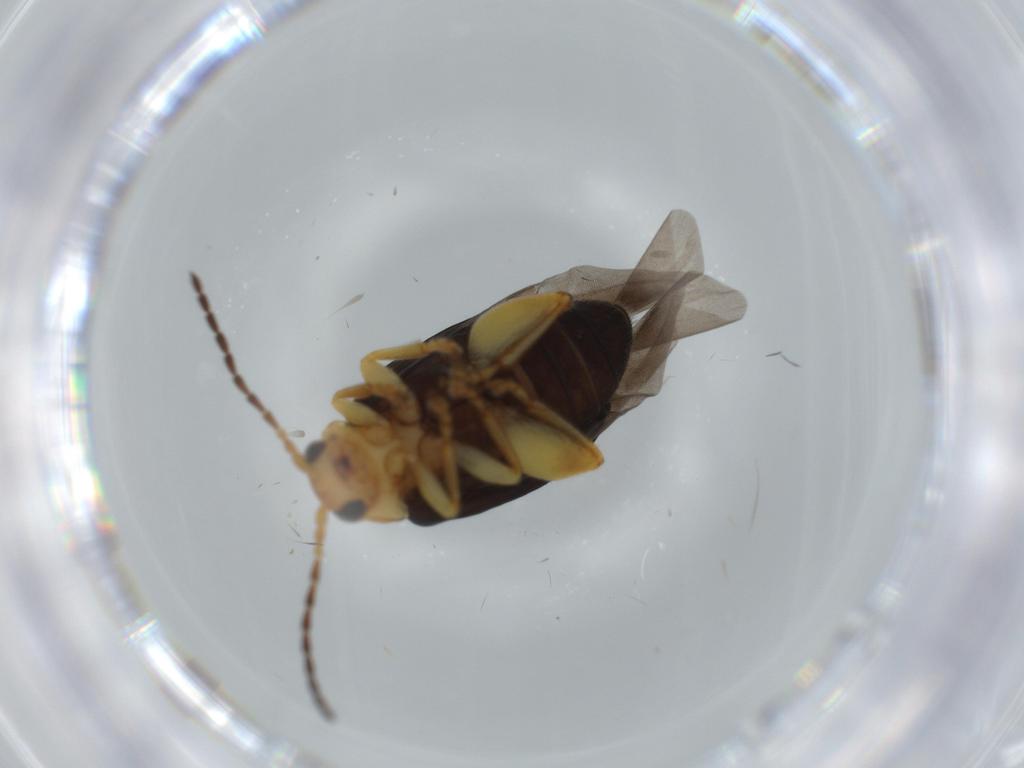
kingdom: Animalia
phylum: Arthropoda
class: Insecta
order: Coleoptera
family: Chrysomelidae
